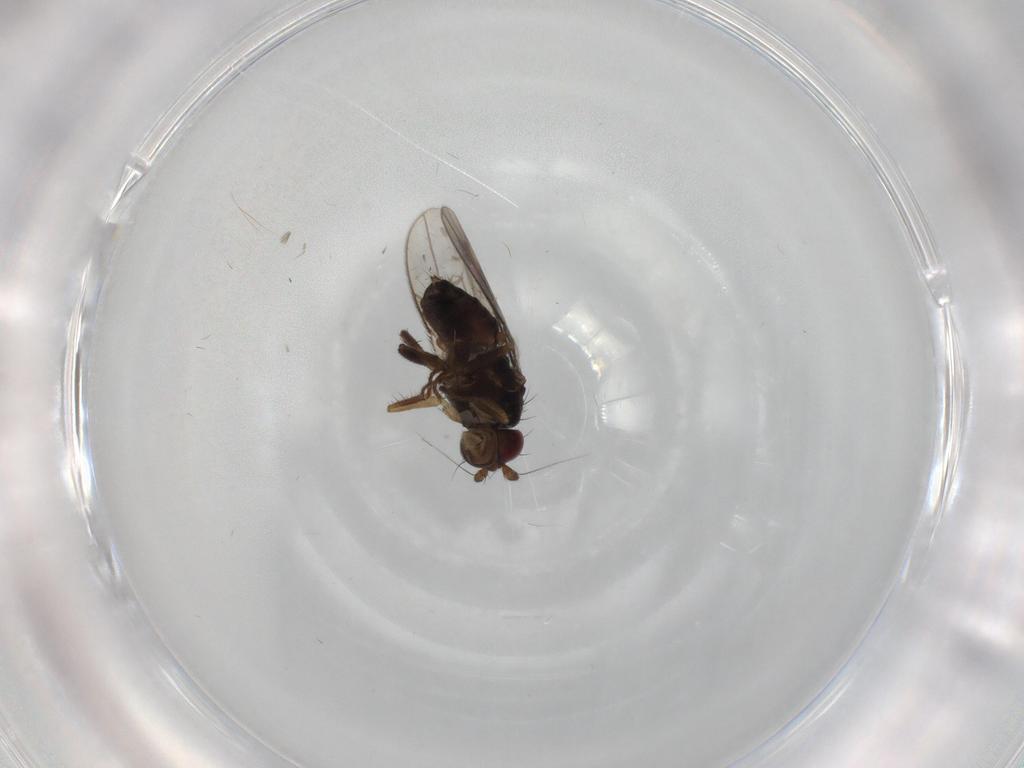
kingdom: Animalia
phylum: Arthropoda
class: Insecta
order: Diptera
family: Sphaeroceridae
